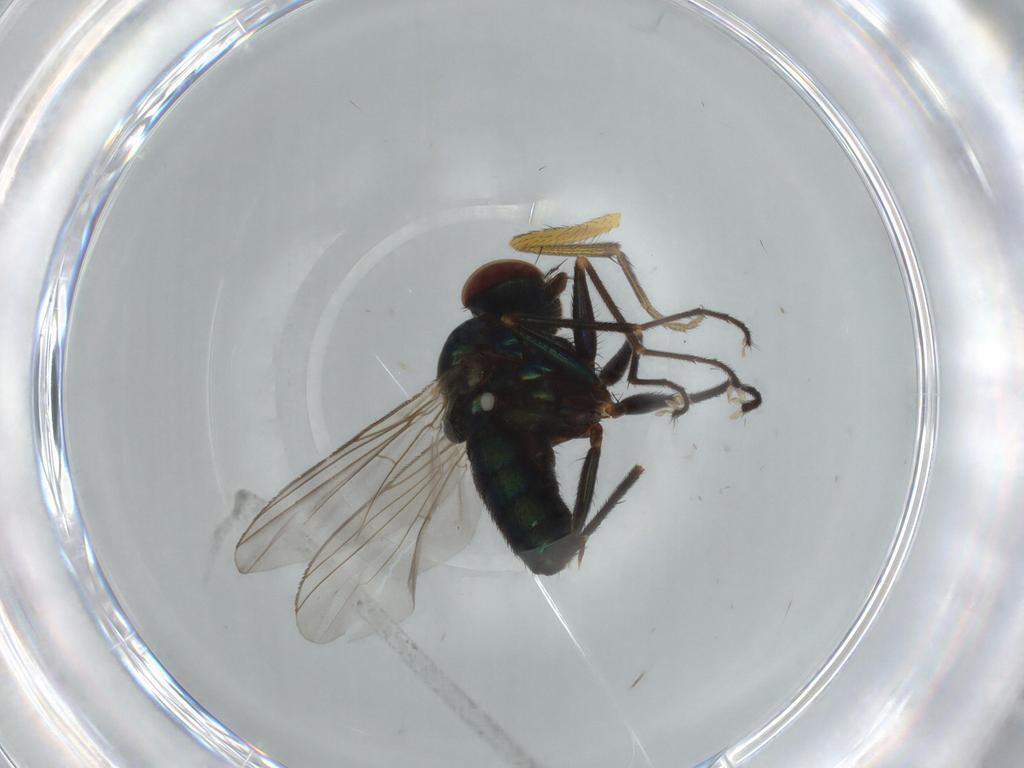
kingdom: Animalia
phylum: Arthropoda
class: Insecta
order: Diptera
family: Dolichopodidae
